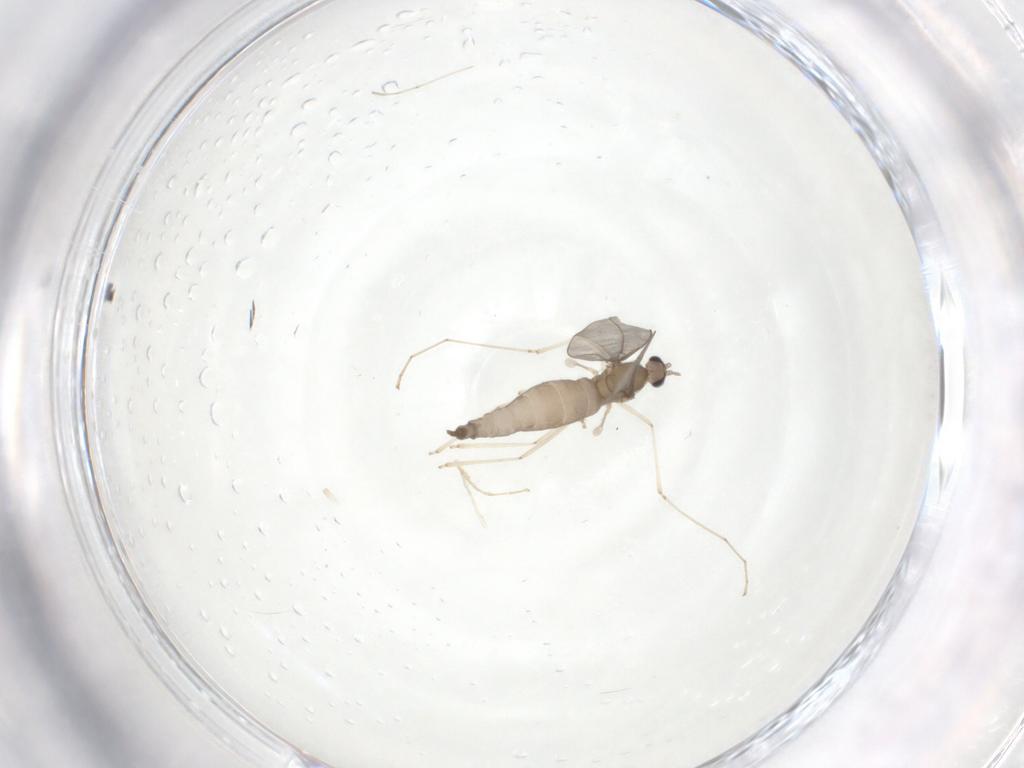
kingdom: Animalia
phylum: Arthropoda
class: Insecta
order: Diptera
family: Cecidomyiidae
